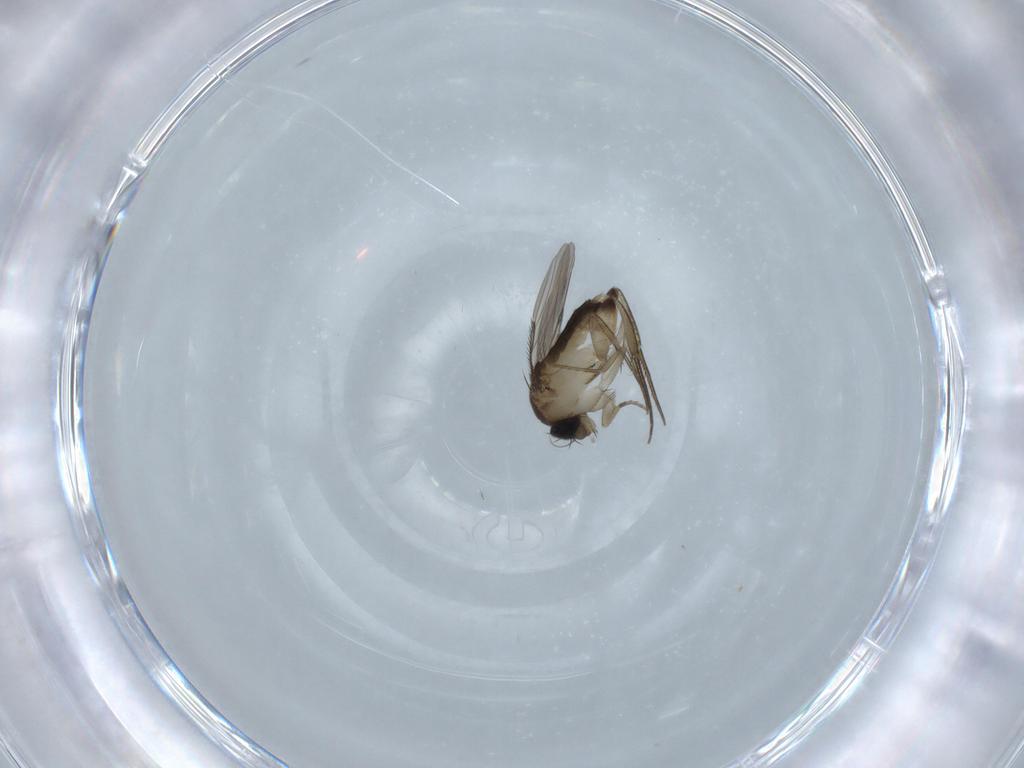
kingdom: Animalia
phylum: Arthropoda
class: Insecta
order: Diptera
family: Phoridae
